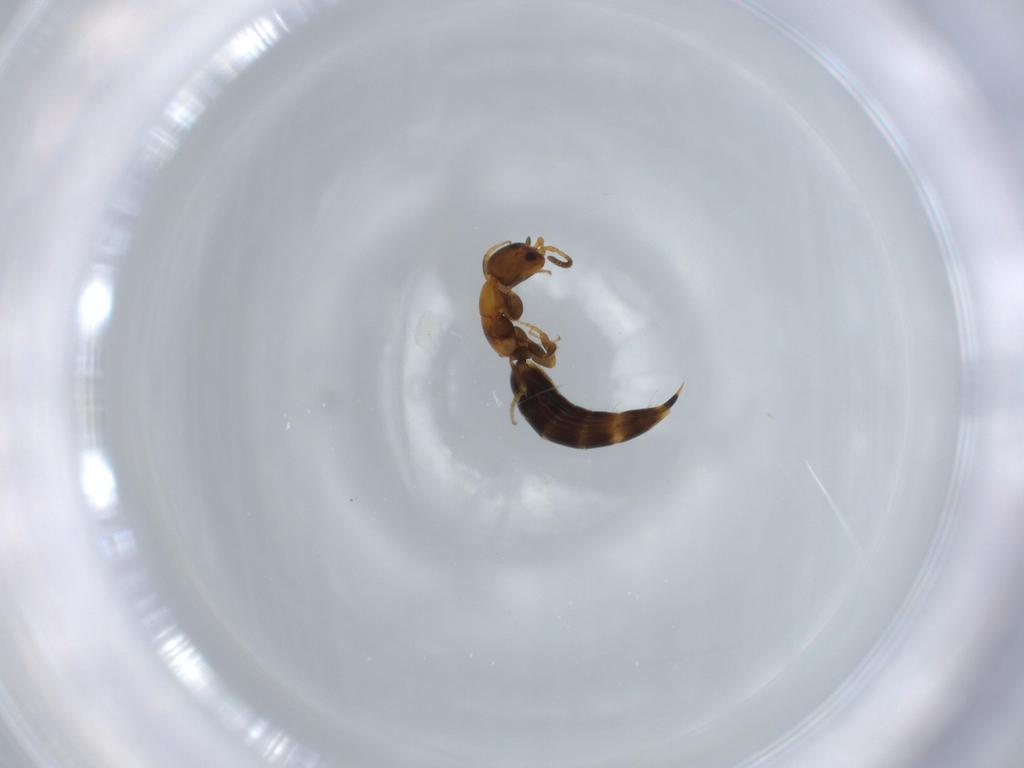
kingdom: Animalia
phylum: Arthropoda
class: Insecta
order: Hymenoptera
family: Bethylidae
